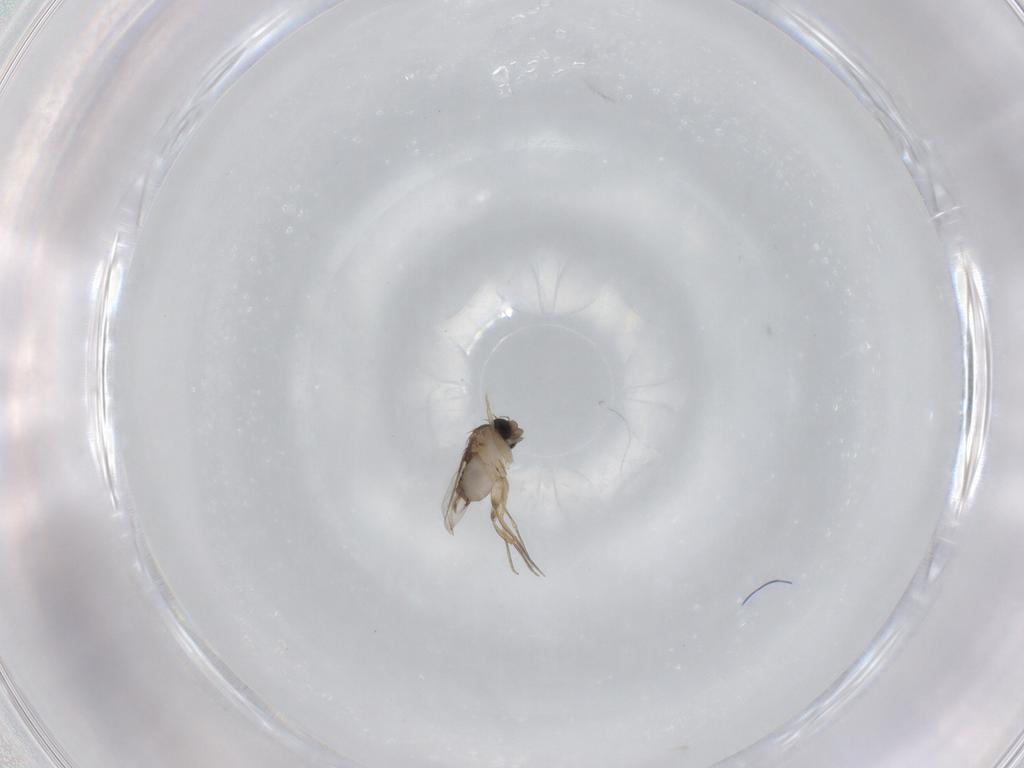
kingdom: Animalia
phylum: Arthropoda
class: Insecta
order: Diptera
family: Phoridae
